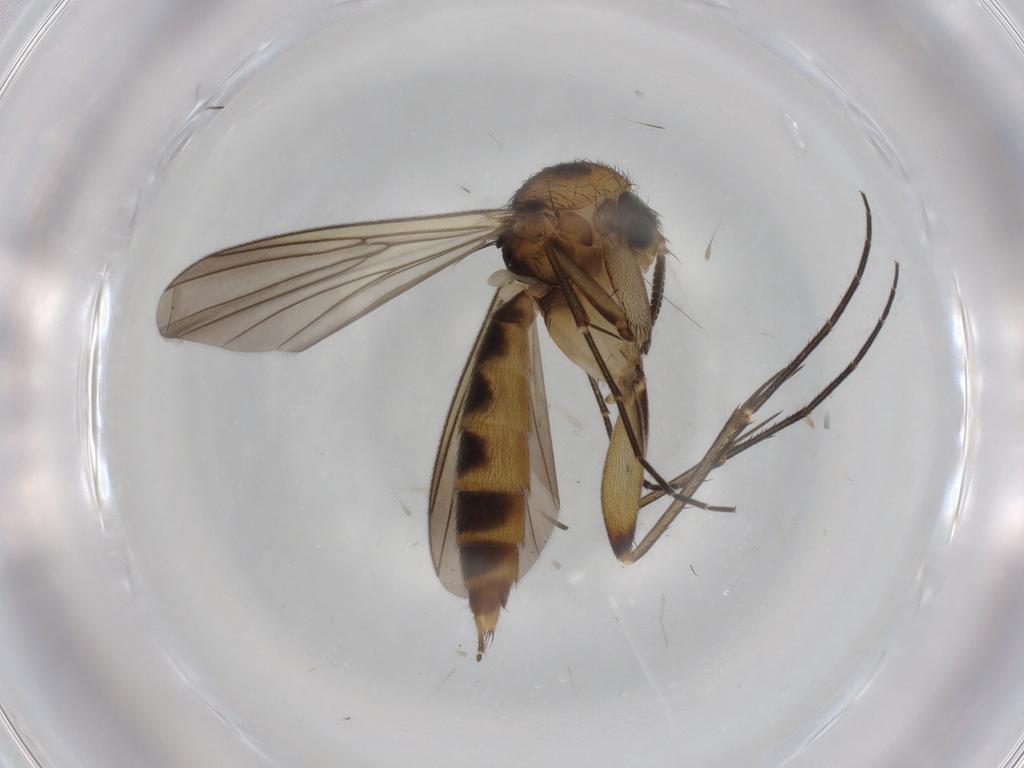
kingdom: Animalia
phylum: Arthropoda
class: Insecta
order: Diptera
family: Mycetophilidae
